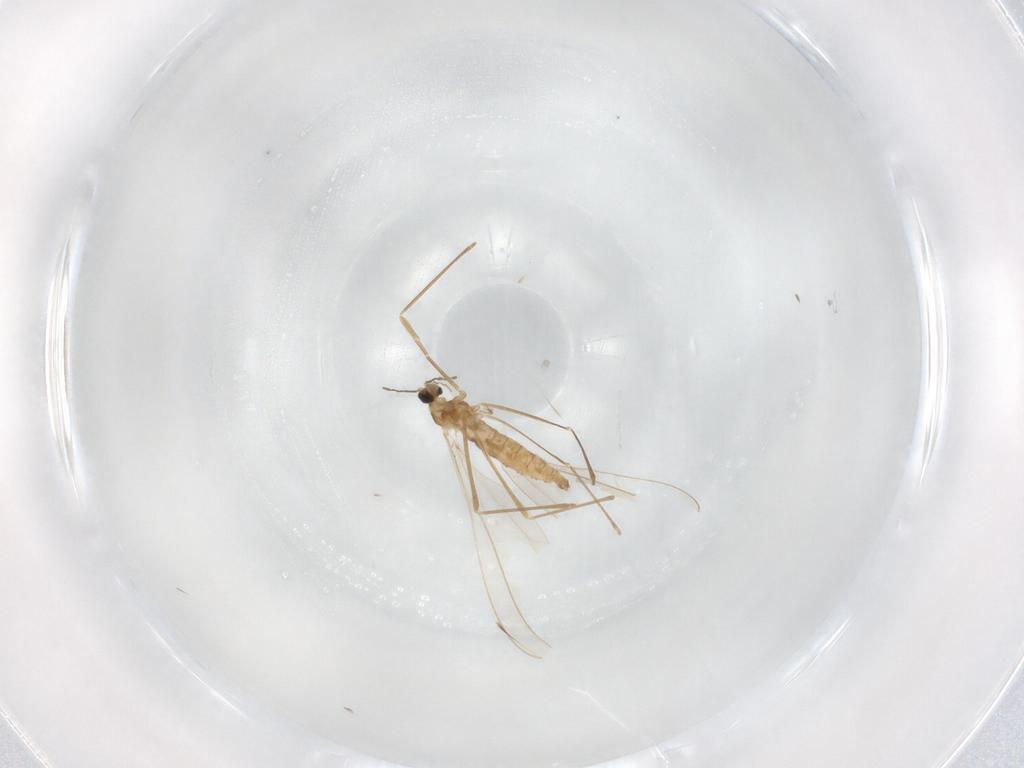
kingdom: Animalia
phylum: Arthropoda
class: Insecta
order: Diptera
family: Cecidomyiidae
